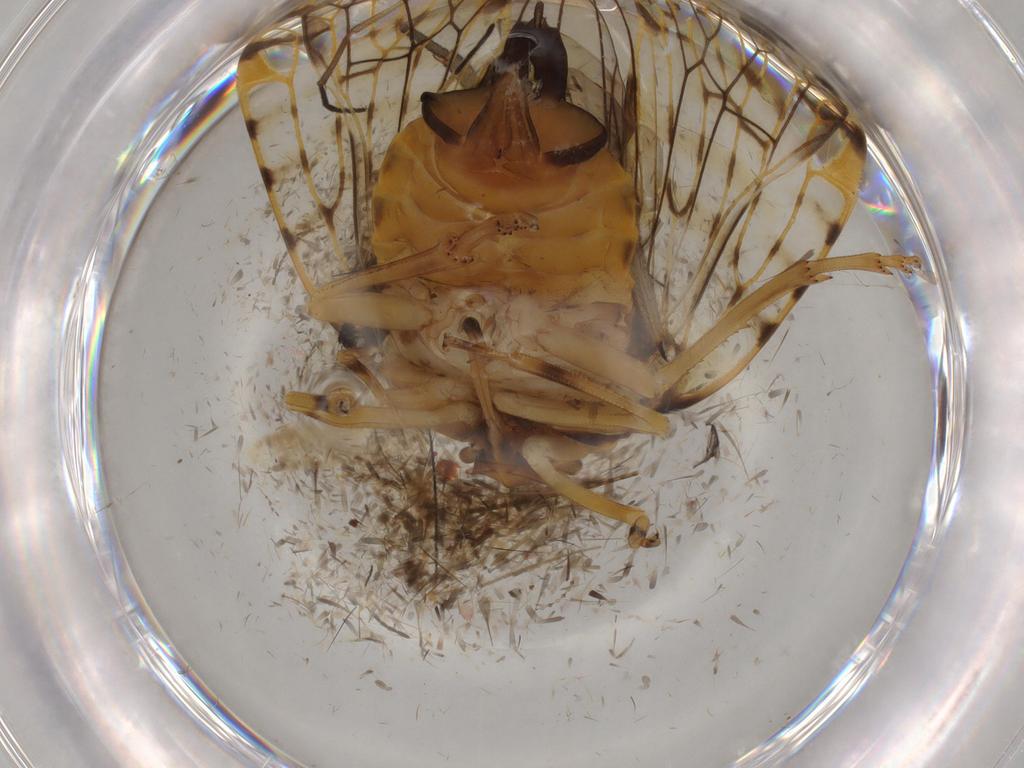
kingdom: Animalia
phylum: Arthropoda
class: Insecta
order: Hemiptera
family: Cixiidae
